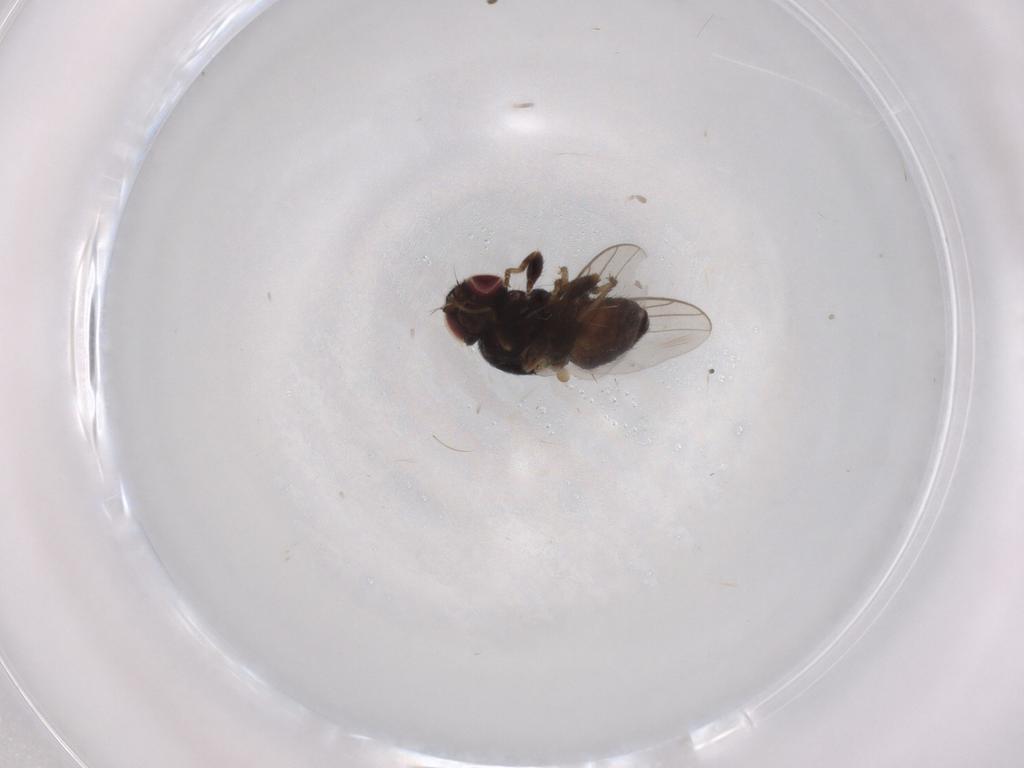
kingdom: Animalia
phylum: Arthropoda
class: Insecta
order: Diptera
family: Chloropidae
